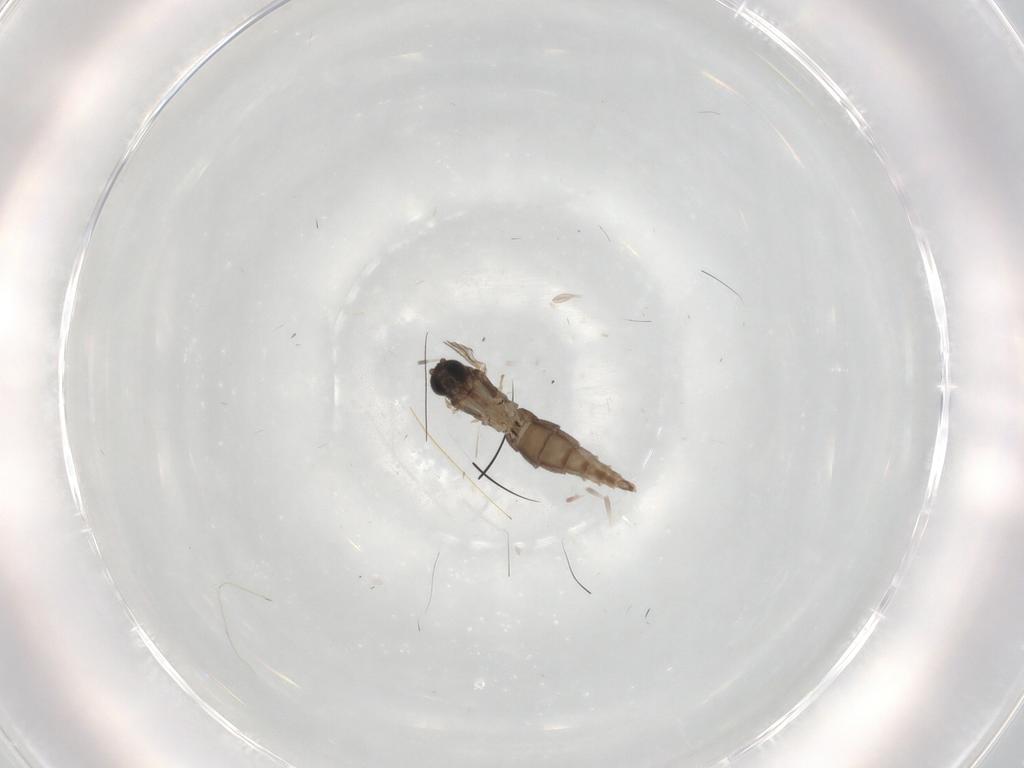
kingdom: Animalia
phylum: Arthropoda
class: Insecta
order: Diptera
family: Sciaridae
